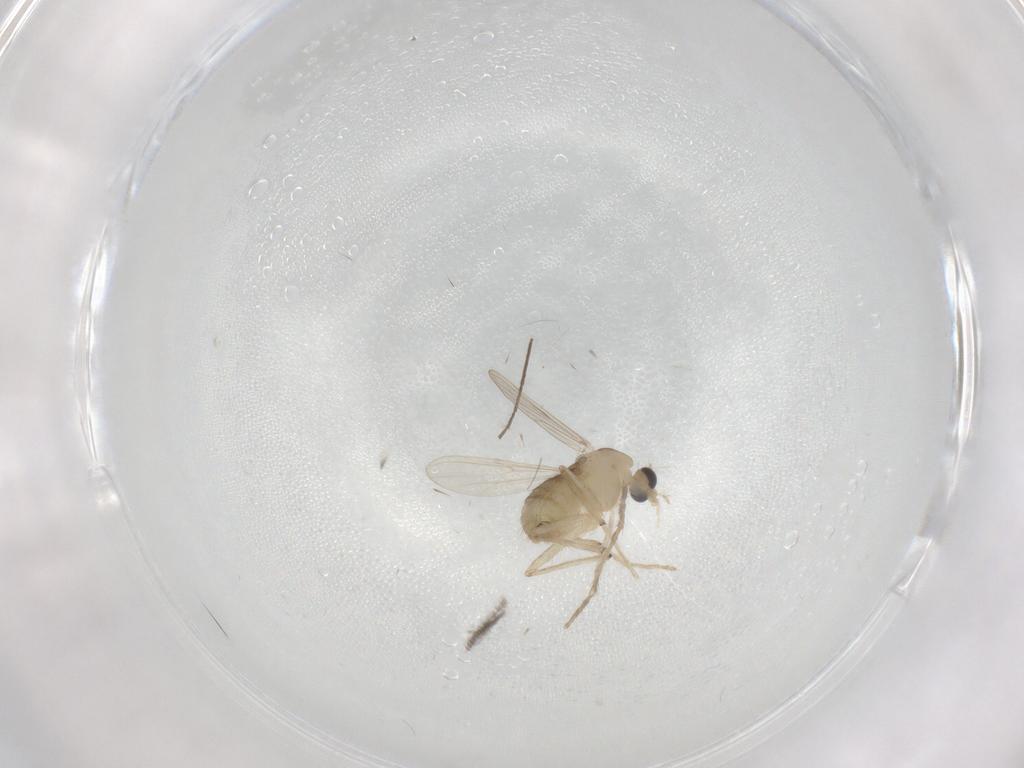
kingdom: Animalia
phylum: Arthropoda
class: Insecta
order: Diptera
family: Chironomidae
